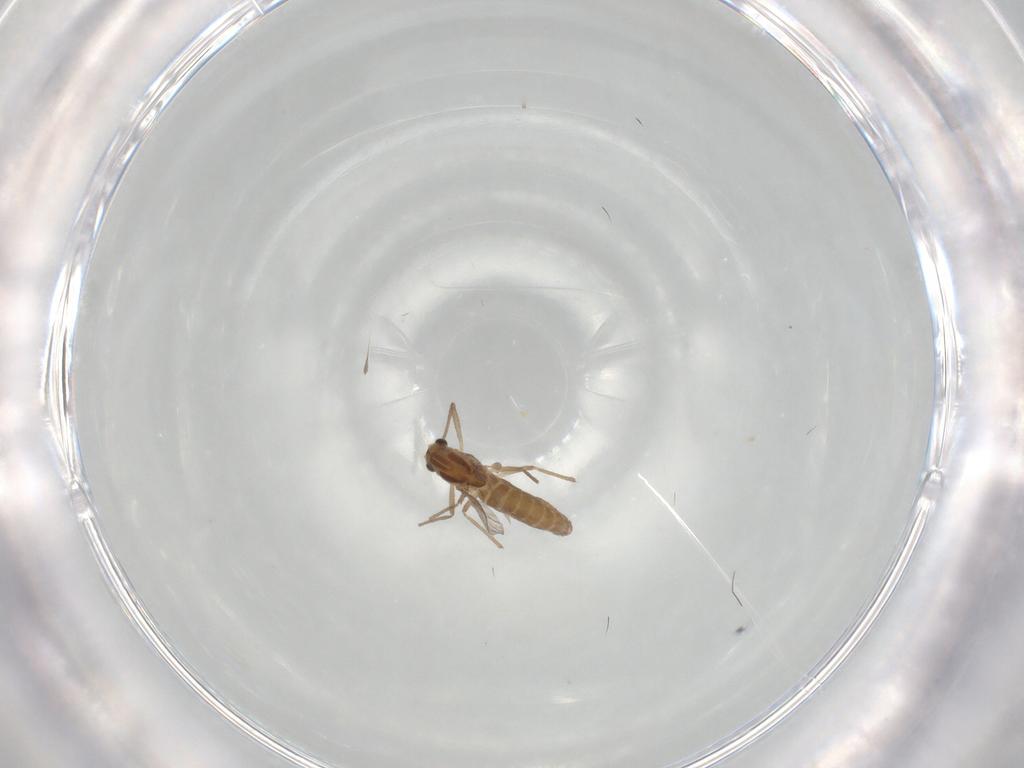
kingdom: Animalia
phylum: Arthropoda
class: Insecta
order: Diptera
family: Chironomidae
